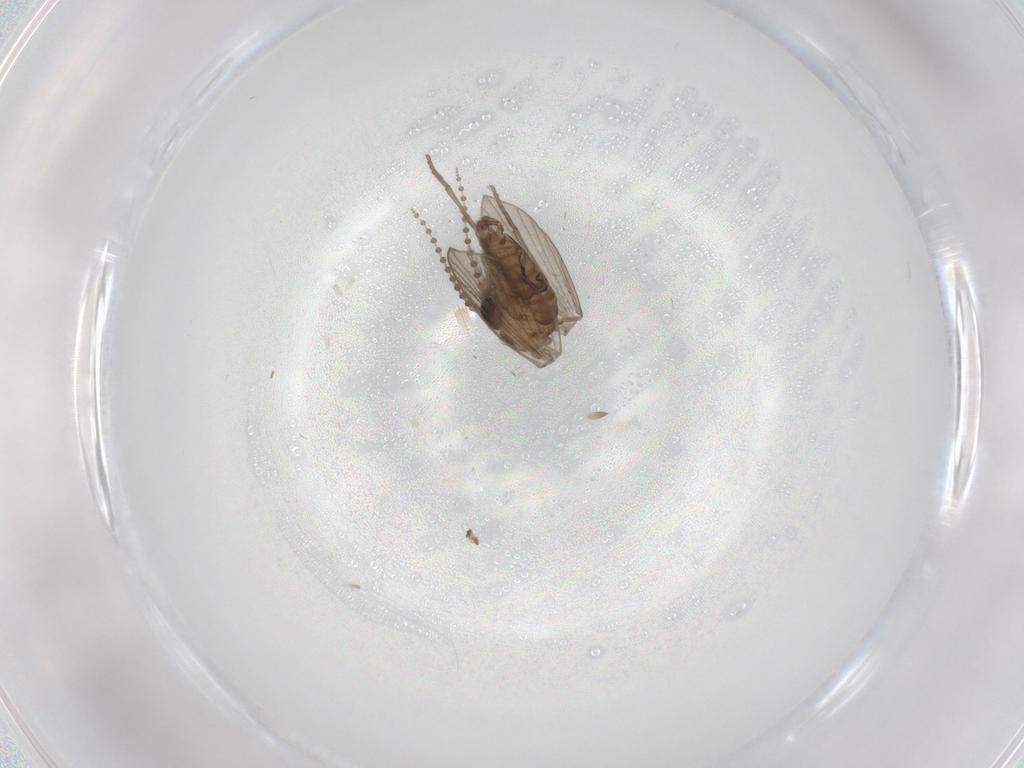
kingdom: Animalia
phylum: Arthropoda
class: Insecta
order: Diptera
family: Psychodidae
